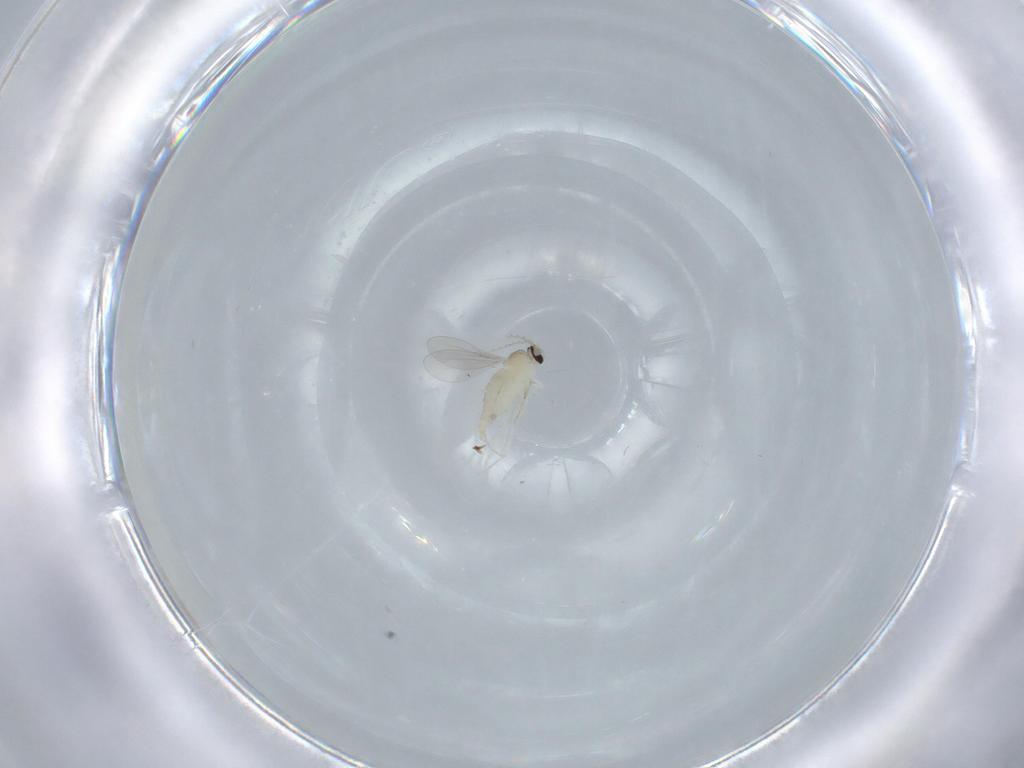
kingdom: Animalia
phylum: Arthropoda
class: Insecta
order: Diptera
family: Cecidomyiidae
